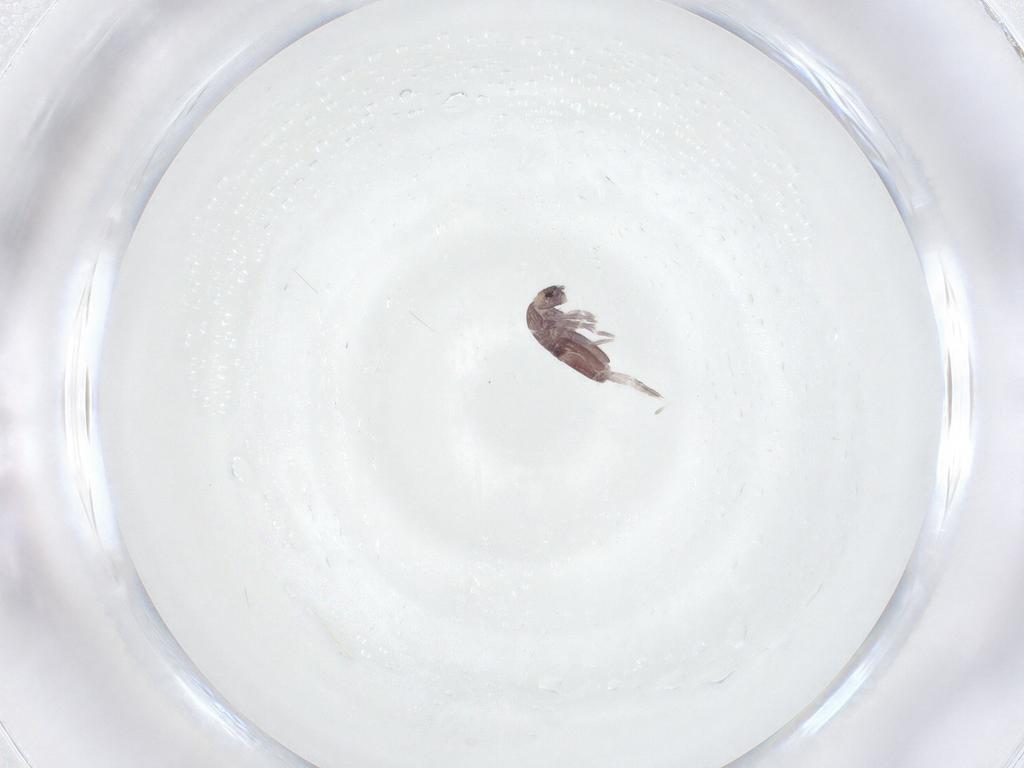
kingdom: Animalia
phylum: Arthropoda
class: Collembola
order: Entomobryomorpha
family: Entomobryidae
